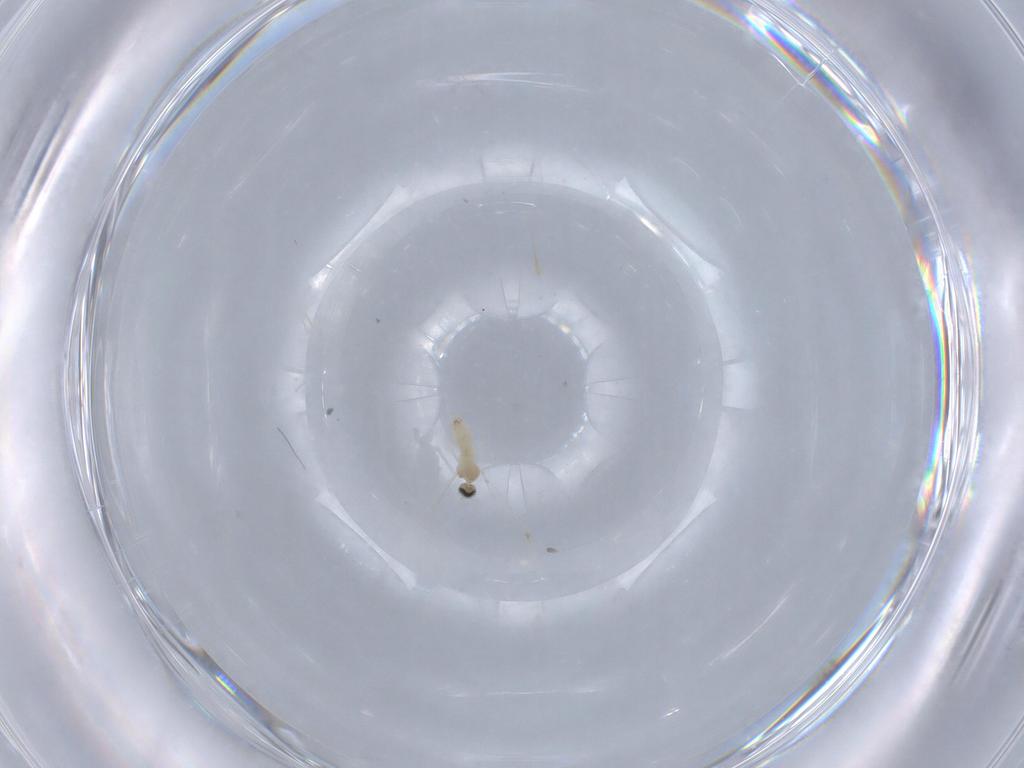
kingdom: Animalia
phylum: Arthropoda
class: Insecta
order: Diptera
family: Cecidomyiidae
